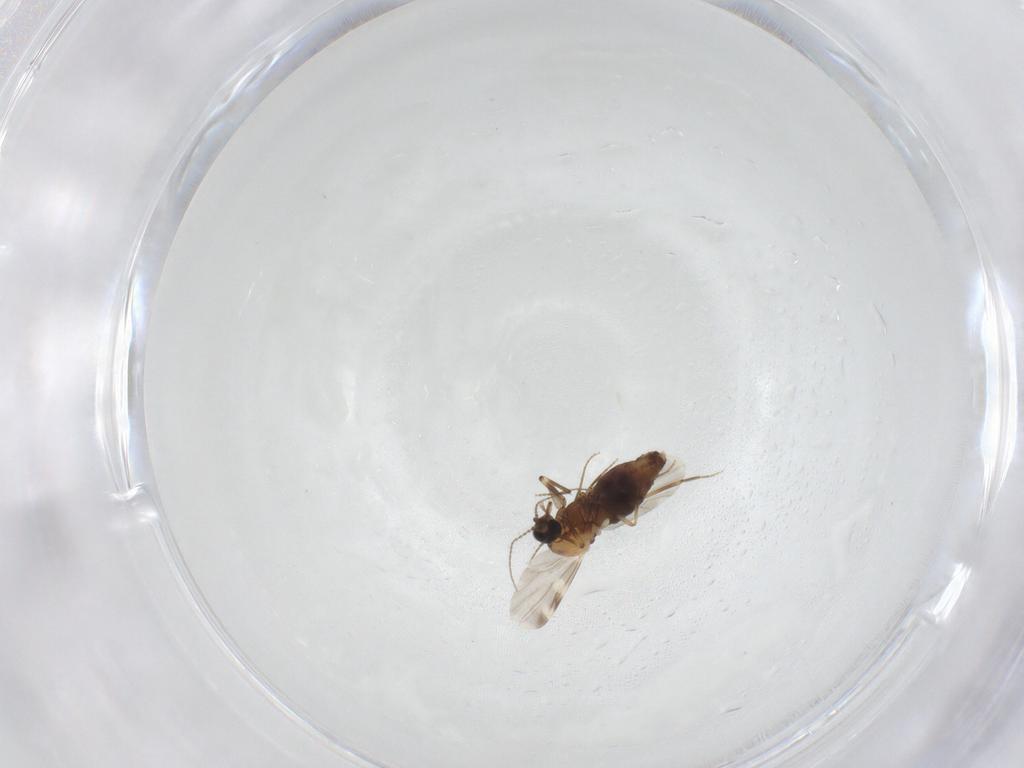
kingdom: Animalia
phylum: Arthropoda
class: Insecta
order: Diptera
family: Ceratopogonidae
